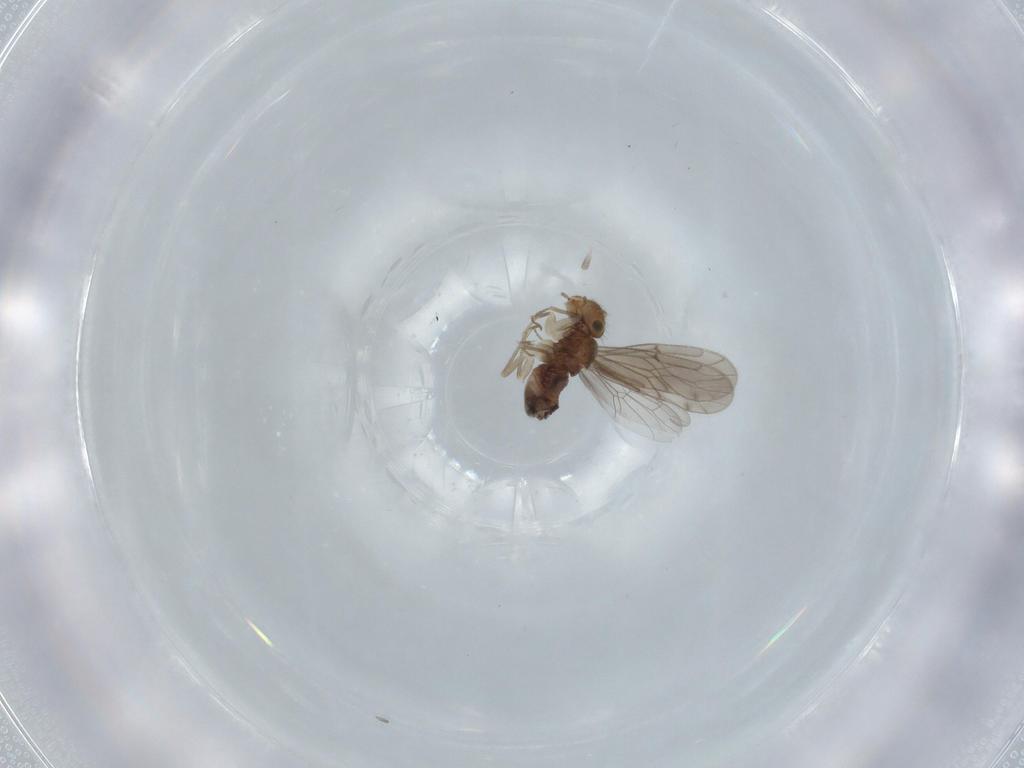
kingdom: Animalia
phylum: Arthropoda
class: Insecta
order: Psocodea
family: Ectopsocidae
